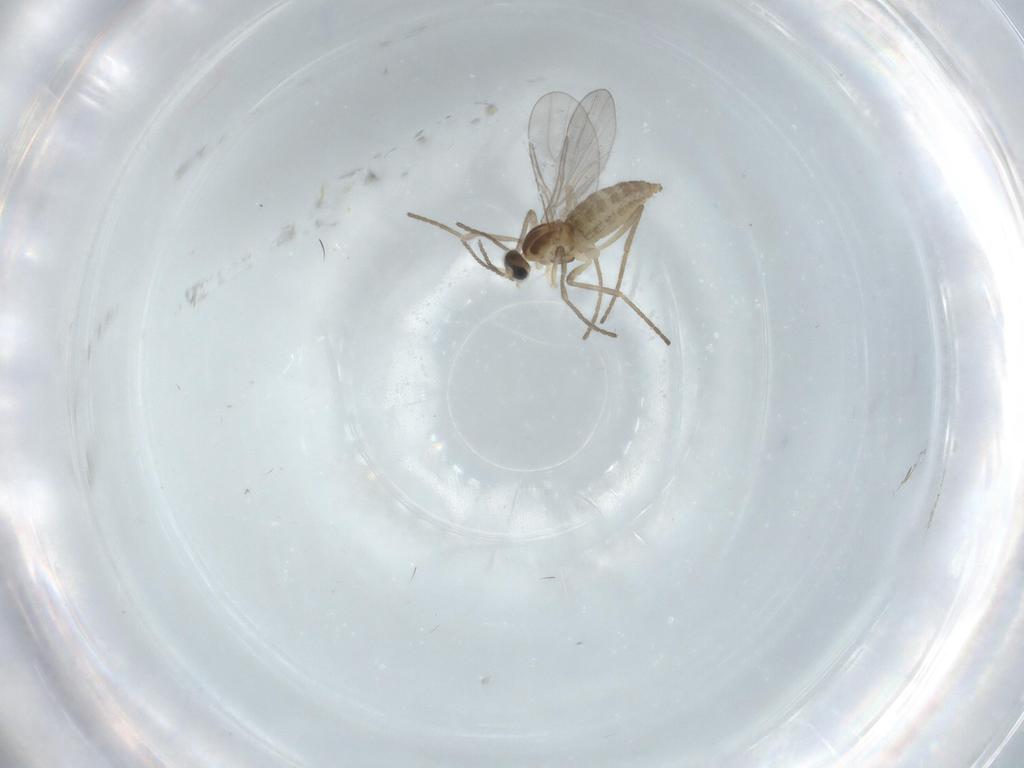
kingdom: Animalia
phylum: Arthropoda
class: Insecta
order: Diptera
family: Cecidomyiidae
